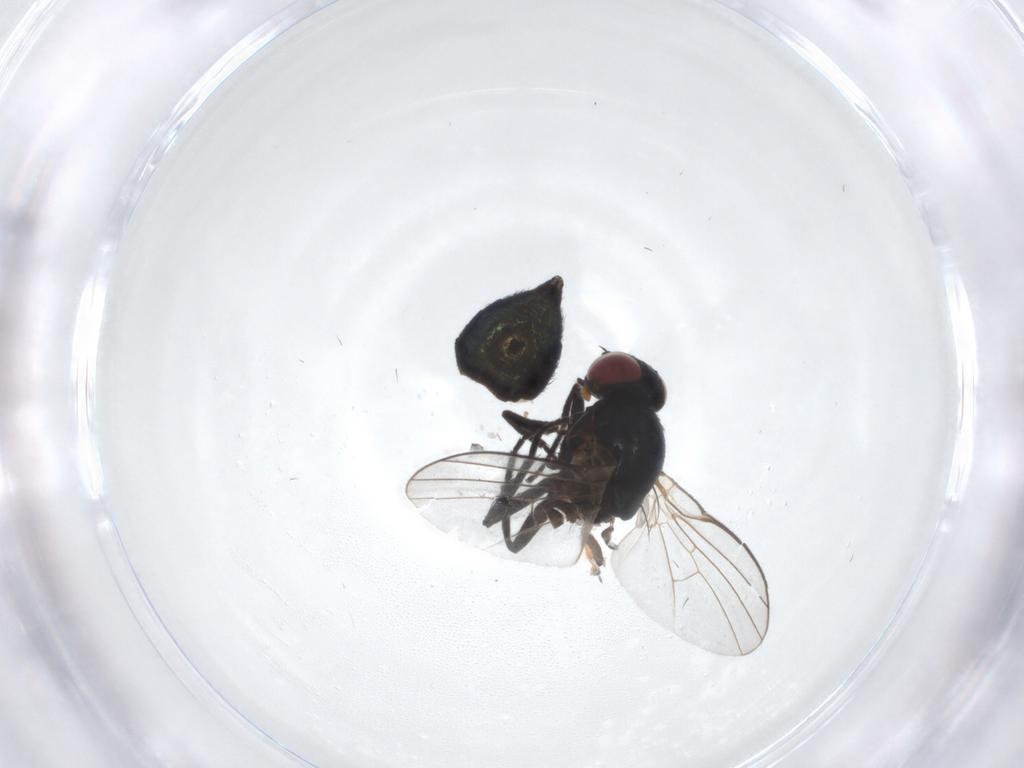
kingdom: Animalia
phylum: Arthropoda
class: Insecta
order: Diptera
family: Agromyzidae
